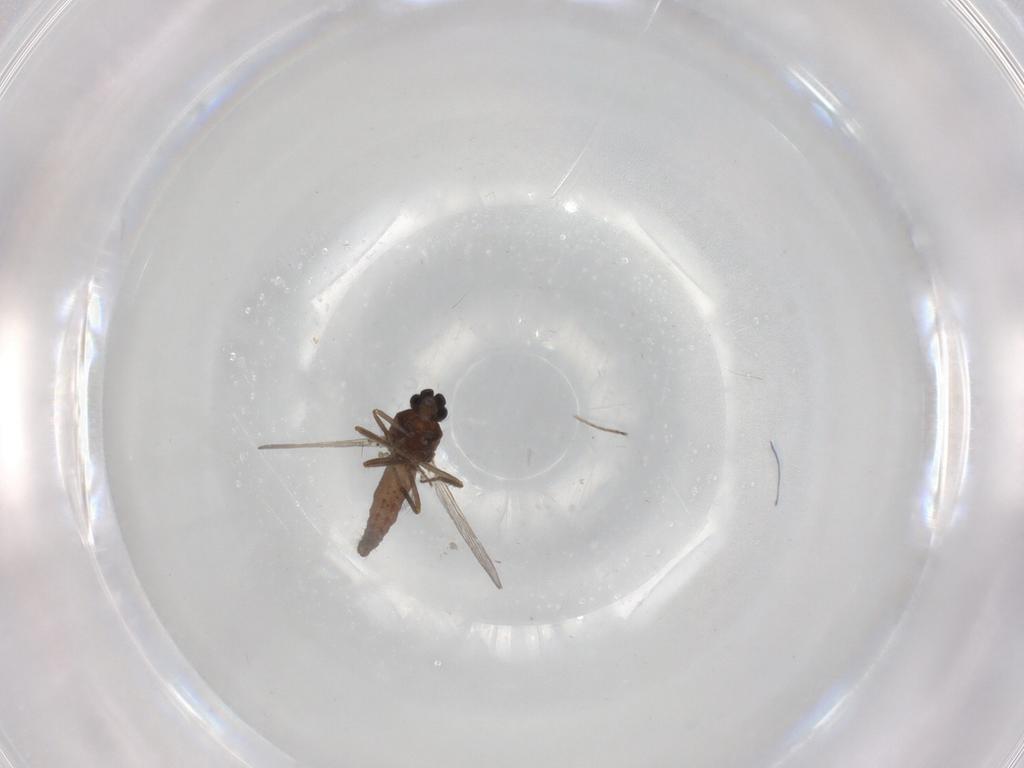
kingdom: Animalia
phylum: Arthropoda
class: Insecta
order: Diptera
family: Ceratopogonidae
